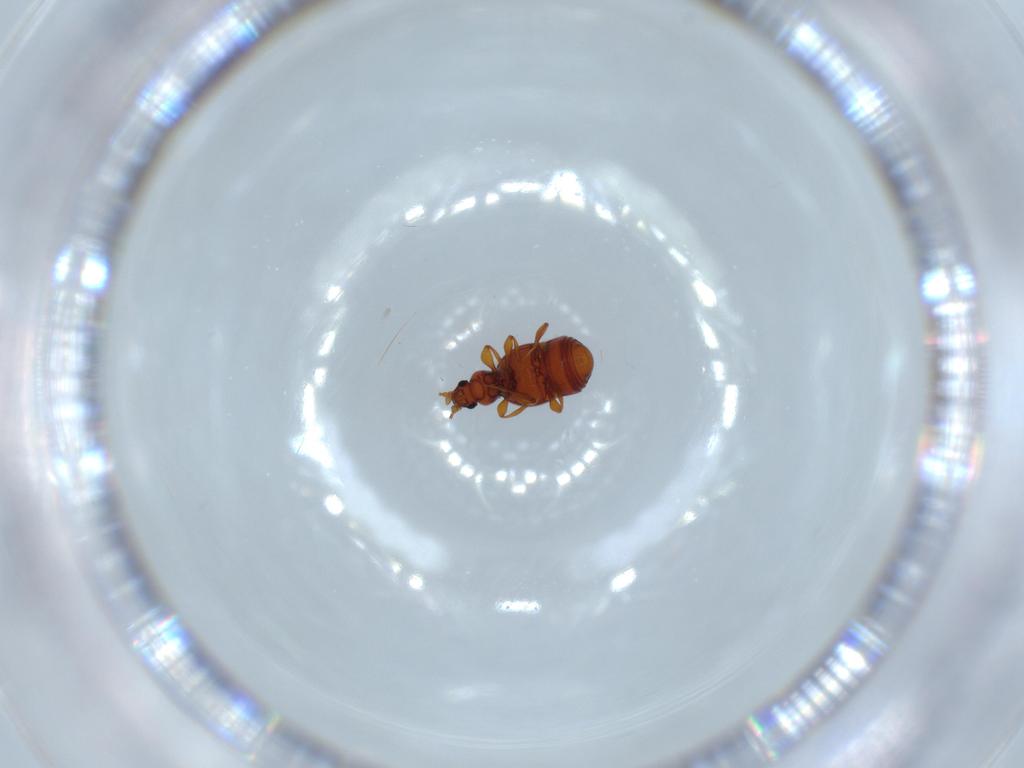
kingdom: Animalia
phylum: Arthropoda
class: Insecta
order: Coleoptera
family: Staphylinidae
